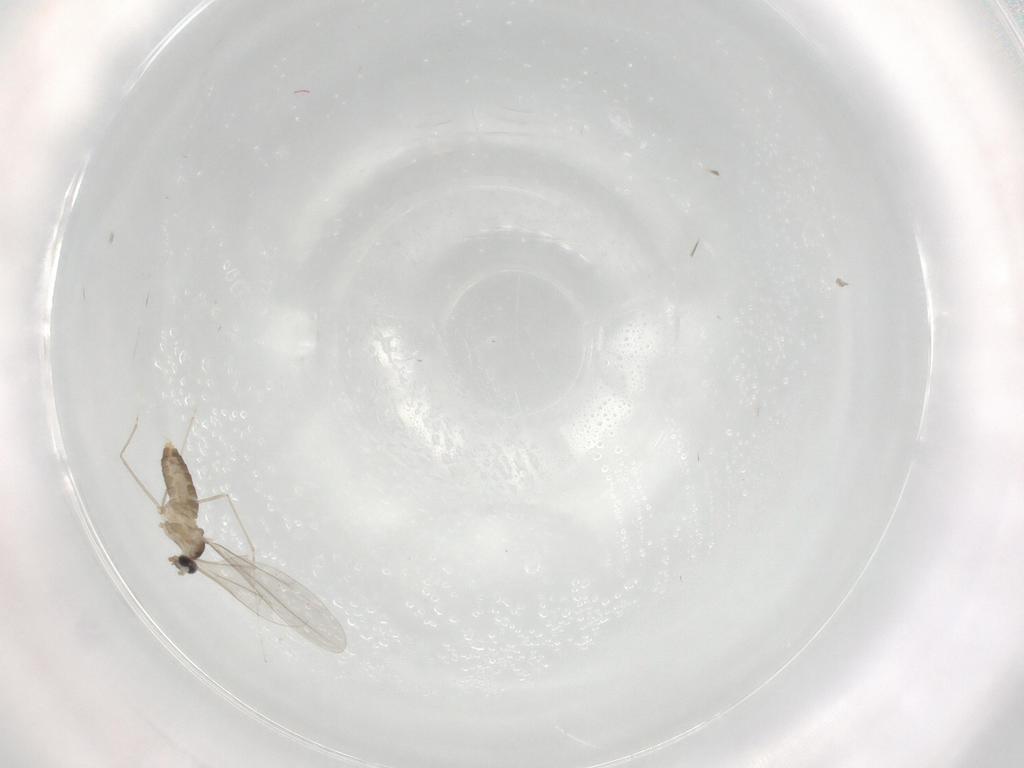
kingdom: Animalia
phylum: Arthropoda
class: Insecta
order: Diptera
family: Cecidomyiidae
